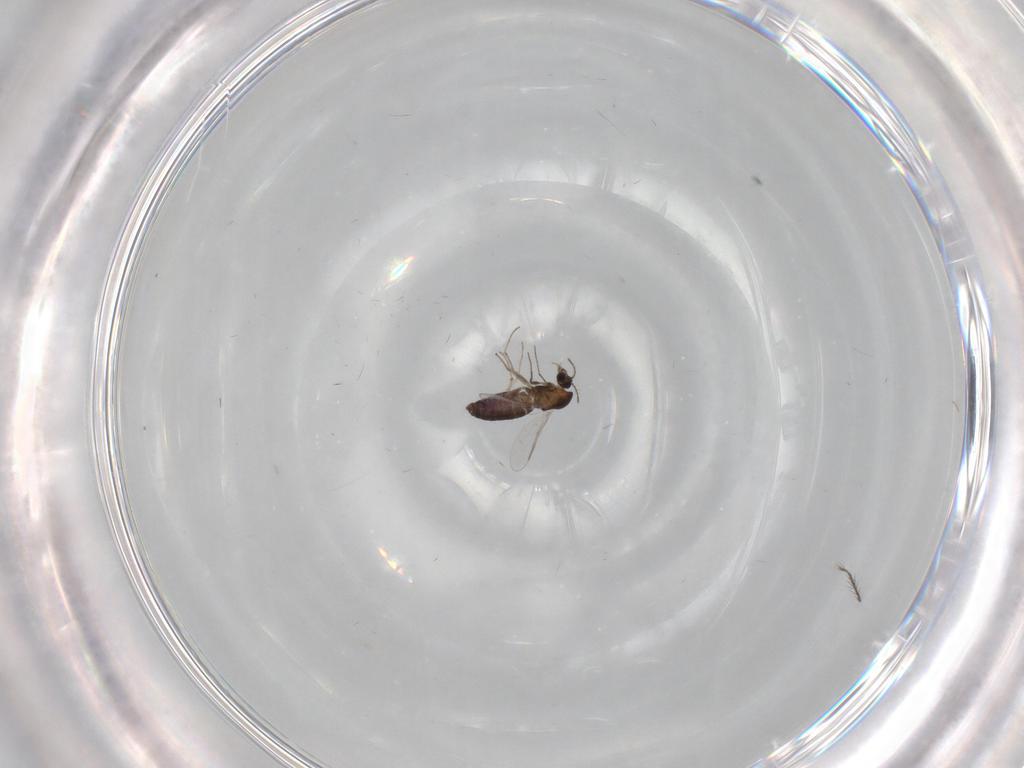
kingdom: Animalia
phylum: Arthropoda
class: Insecta
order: Diptera
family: Chironomidae
